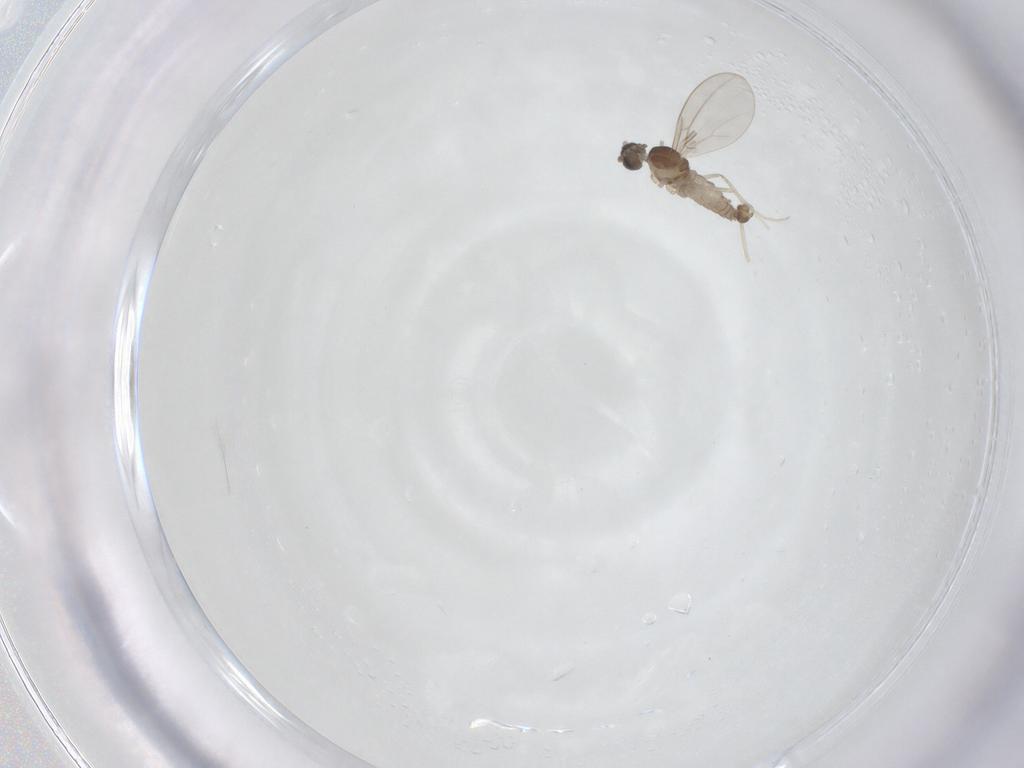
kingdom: Animalia
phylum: Arthropoda
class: Insecta
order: Diptera
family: Cecidomyiidae
